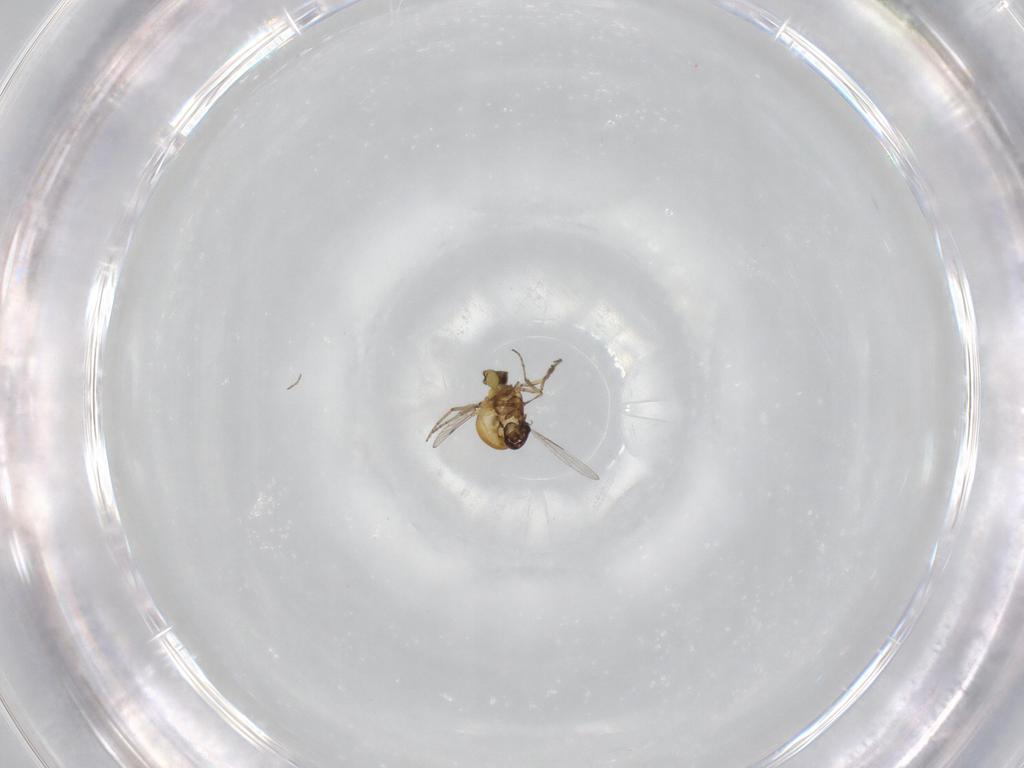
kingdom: Animalia
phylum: Arthropoda
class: Insecta
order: Diptera
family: Ceratopogonidae
